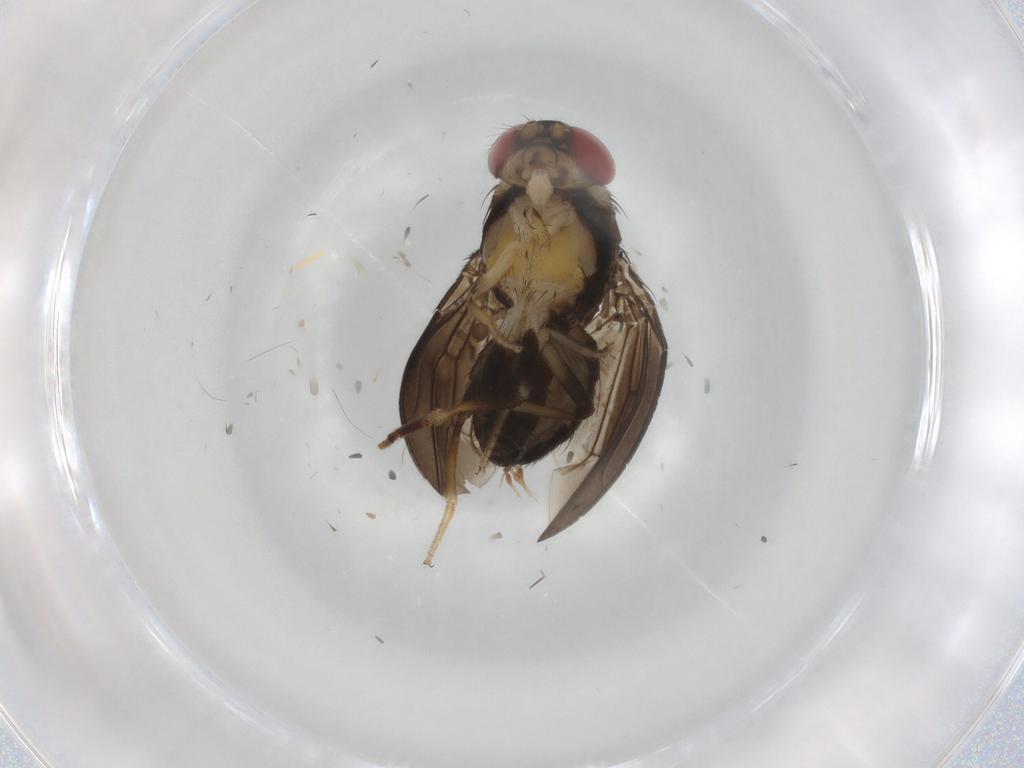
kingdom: Animalia
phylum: Arthropoda
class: Insecta
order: Diptera
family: Drosophilidae
